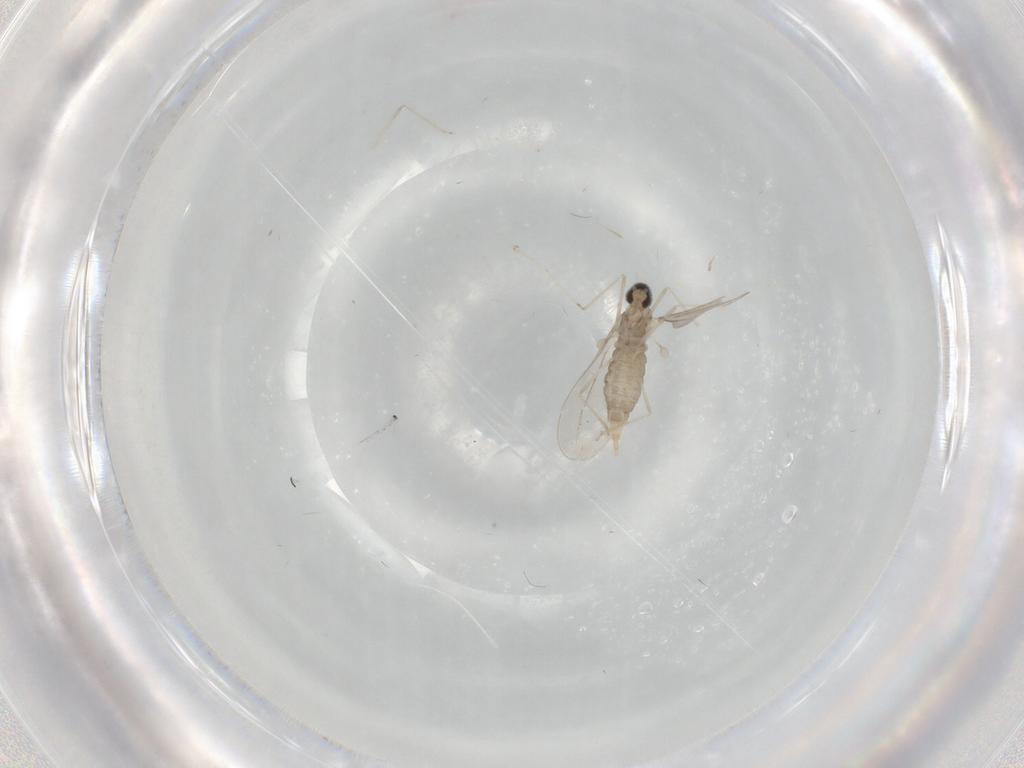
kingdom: Animalia
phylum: Arthropoda
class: Insecta
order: Diptera
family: Cecidomyiidae
